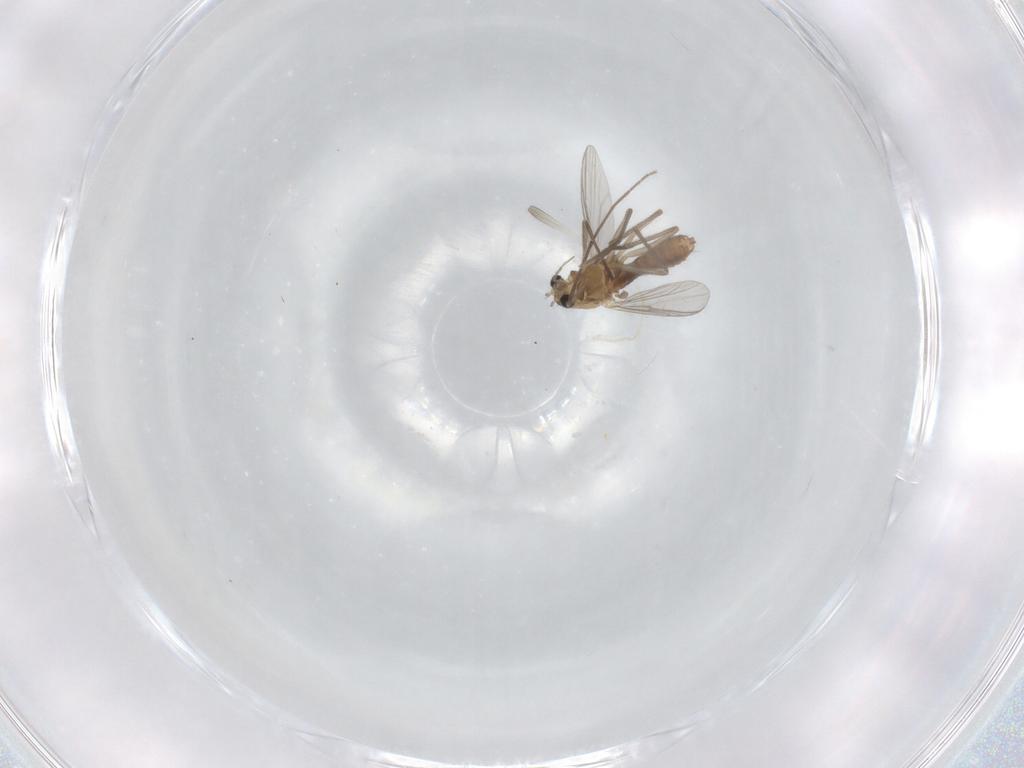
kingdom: Animalia
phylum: Arthropoda
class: Insecta
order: Diptera
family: Chironomidae
